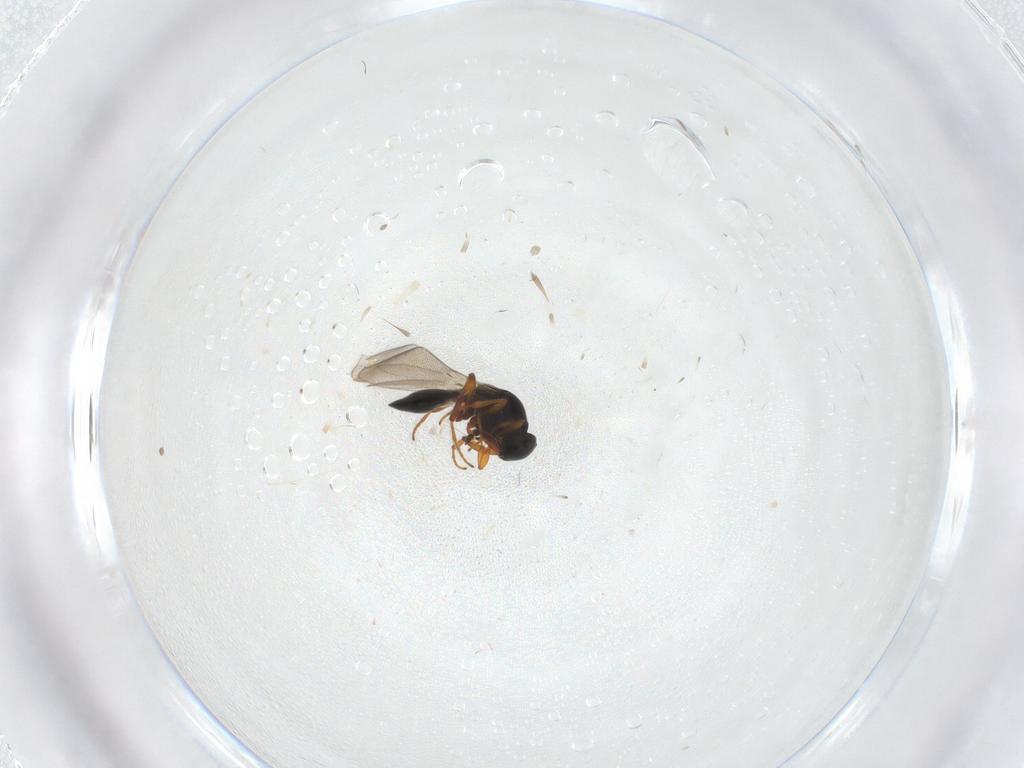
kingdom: Animalia
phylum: Arthropoda
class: Insecta
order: Hymenoptera
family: Platygastridae
